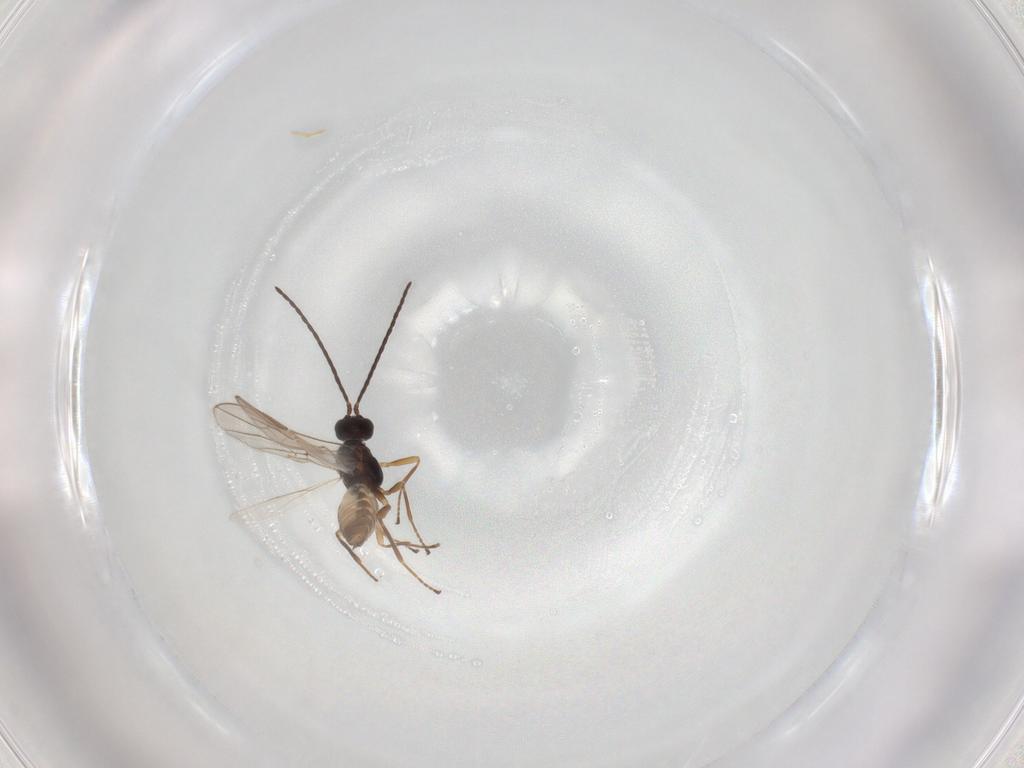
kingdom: Animalia
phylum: Arthropoda
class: Insecta
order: Hymenoptera
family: Braconidae
